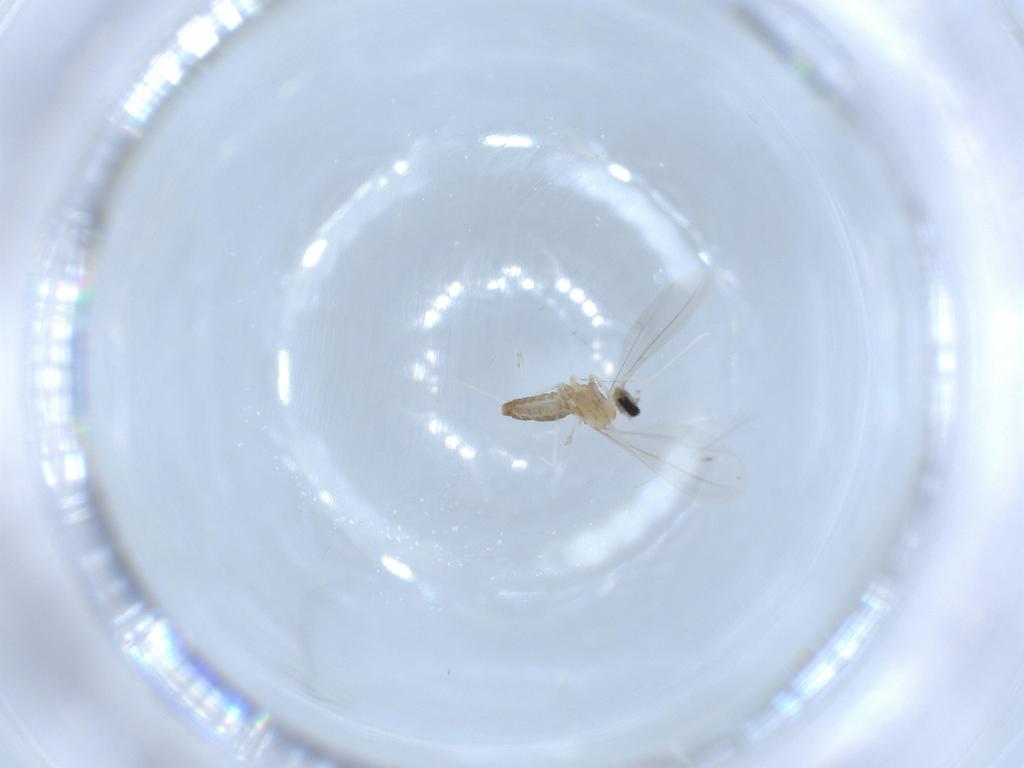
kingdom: Animalia
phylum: Arthropoda
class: Insecta
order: Diptera
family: Cecidomyiidae
